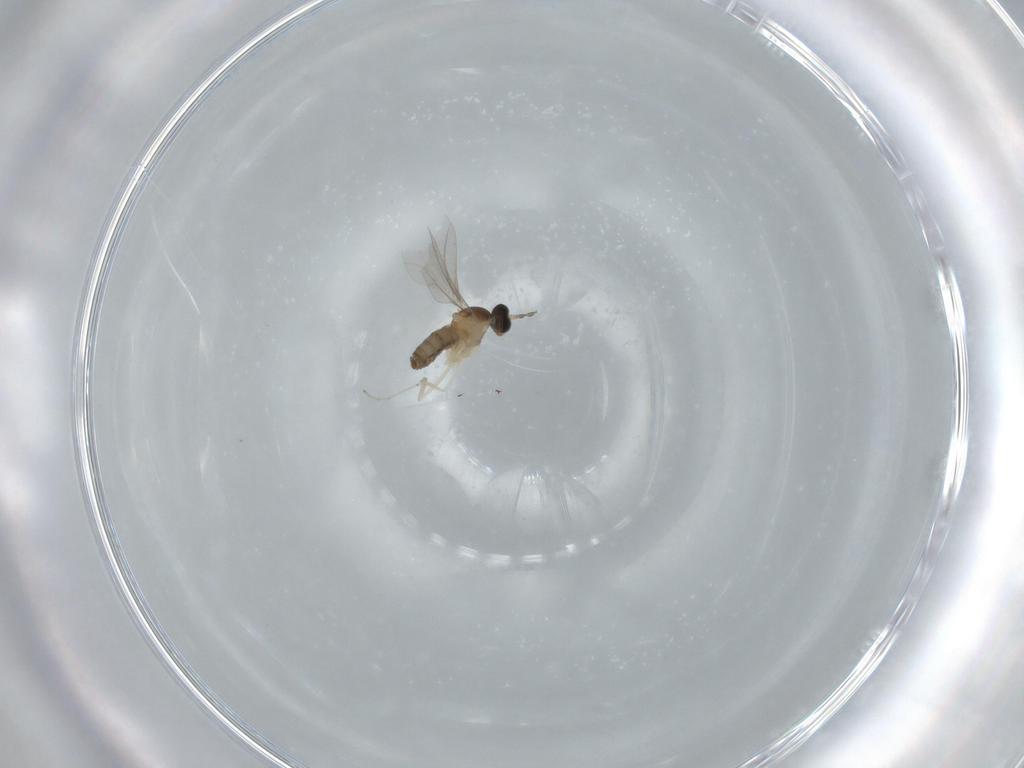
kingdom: Animalia
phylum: Arthropoda
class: Insecta
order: Diptera
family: Cecidomyiidae
